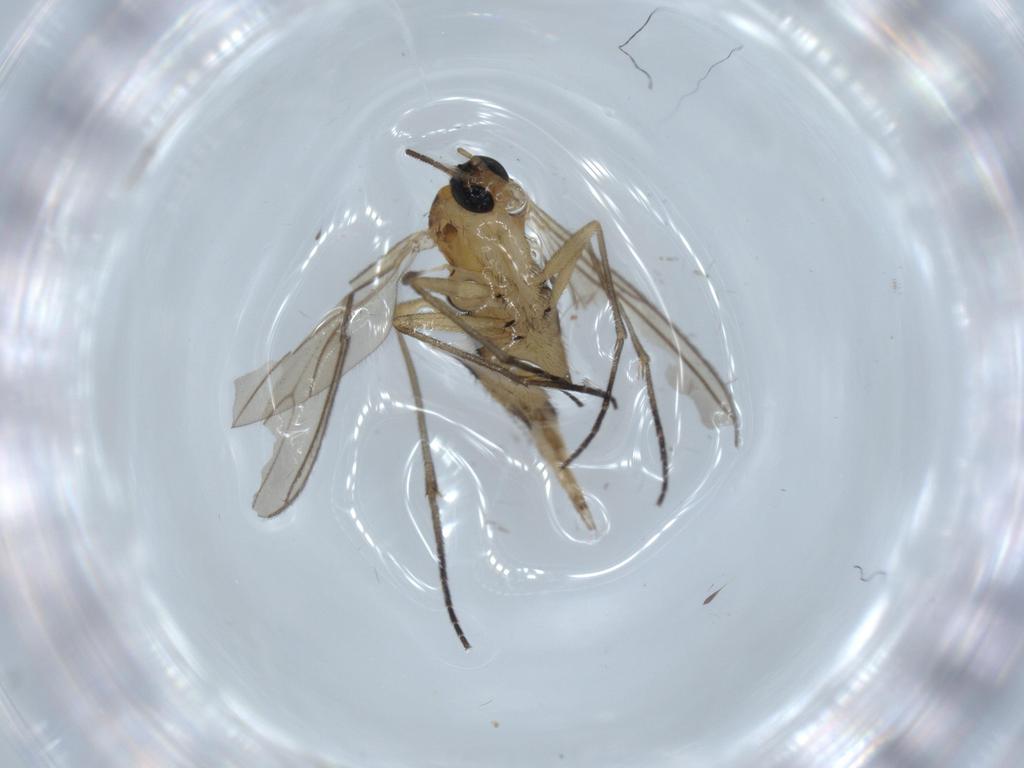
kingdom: Animalia
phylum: Arthropoda
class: Insecta
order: Diptera
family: Sciaridae
